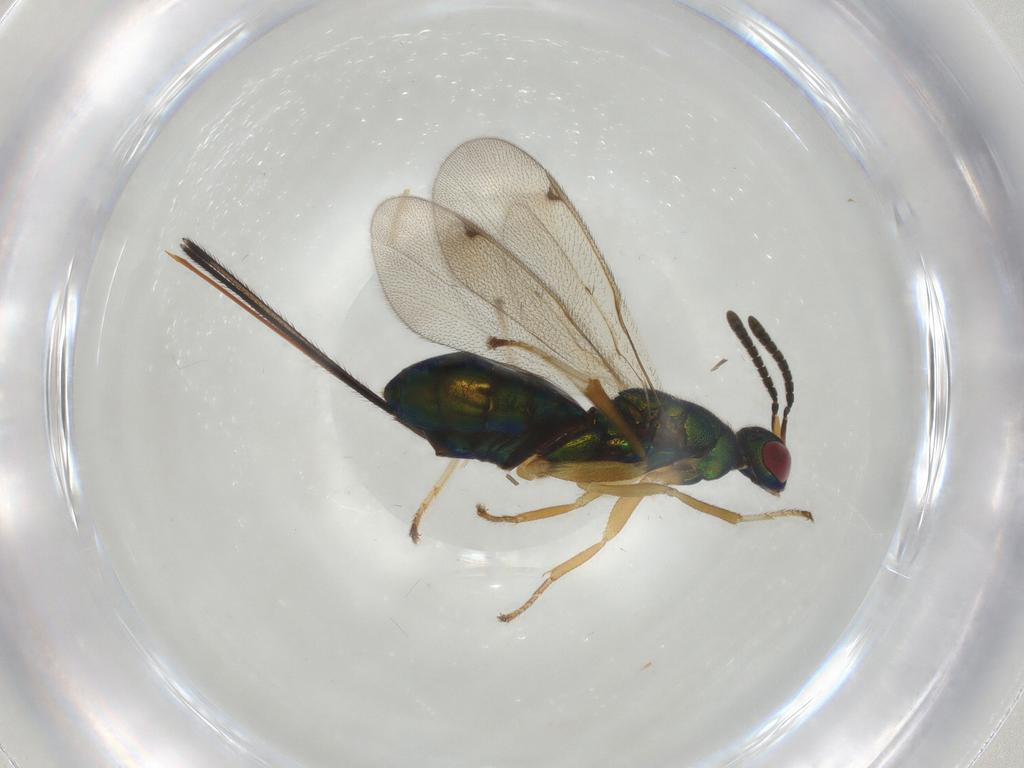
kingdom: Animalia
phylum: Arthropoda
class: Insecta
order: Hymenoptera
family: Torymidae
